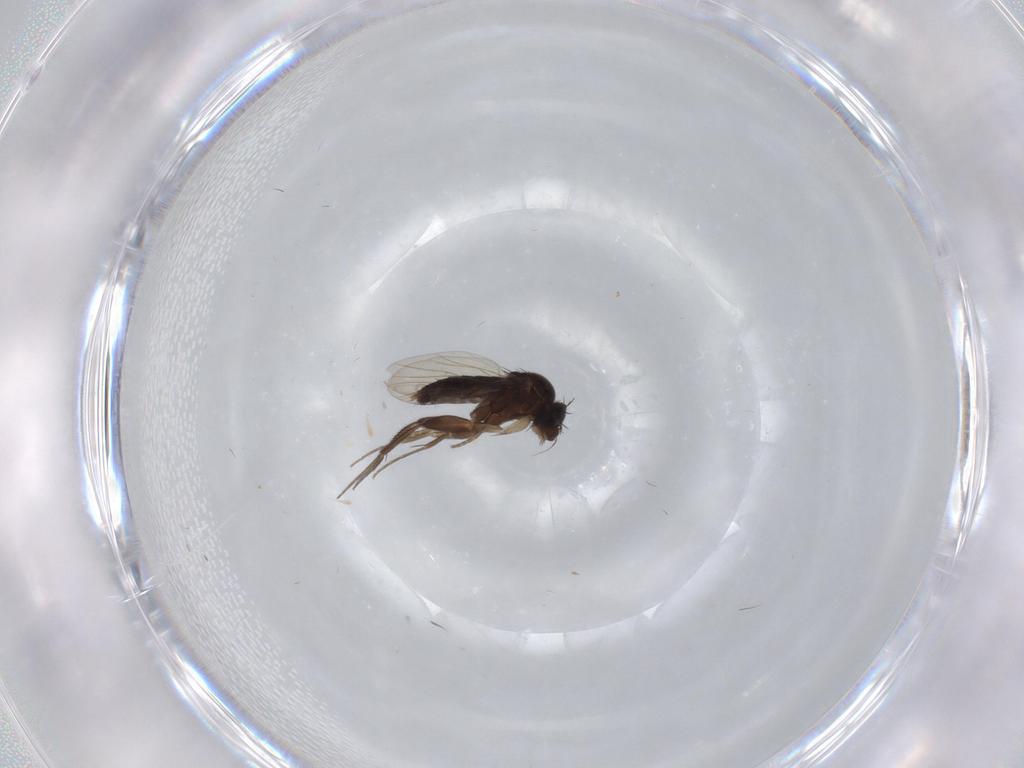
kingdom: Animalia
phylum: Arthropoda
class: Insecta
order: Diptera
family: Phoridae
